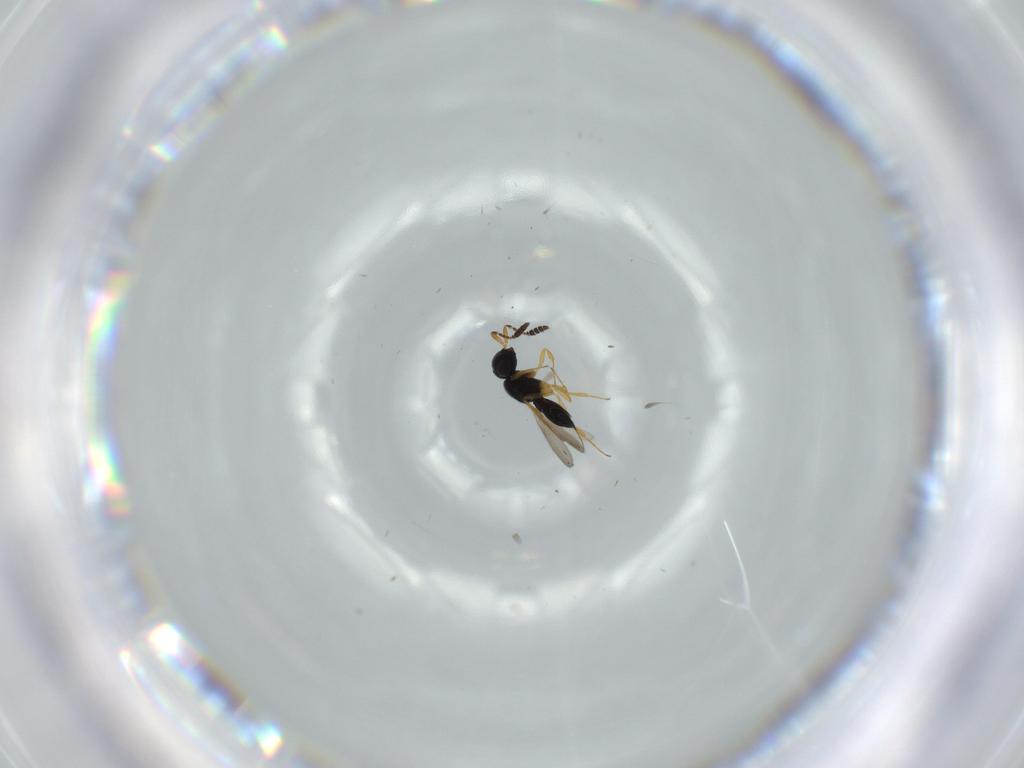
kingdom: Animalia
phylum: Arthropoda
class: Insecta
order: Hymenoptera
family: Scelionidae
